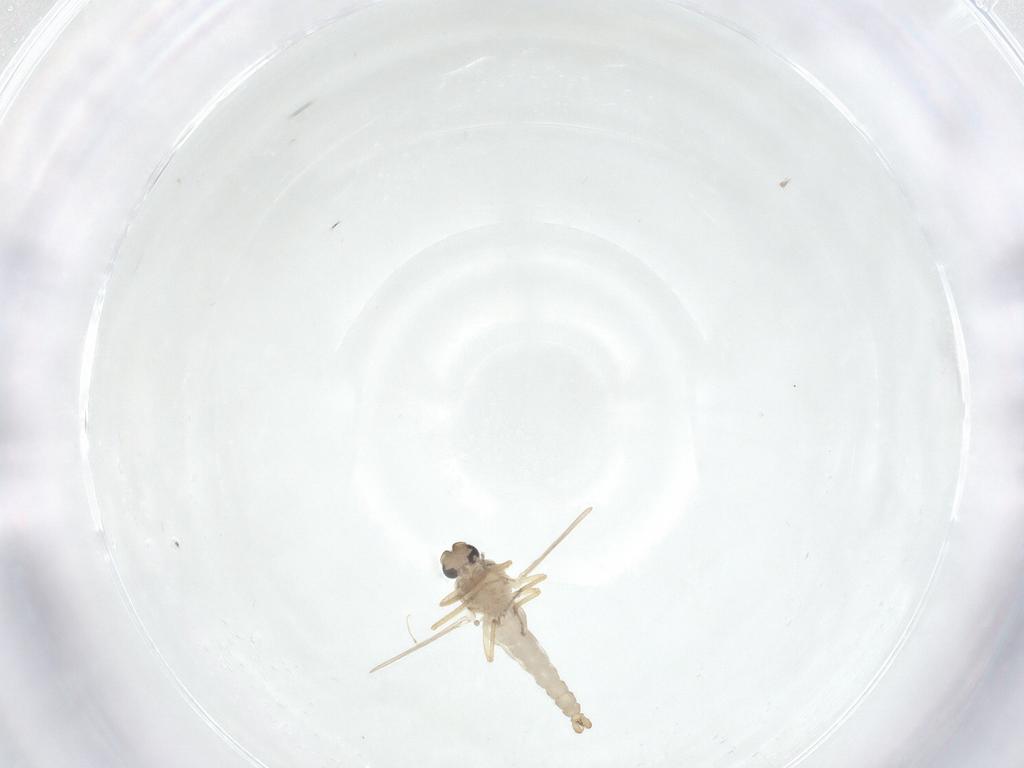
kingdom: Animalia
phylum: Arthropoda
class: Insecta
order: Diptera
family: Ceratopogonidae
